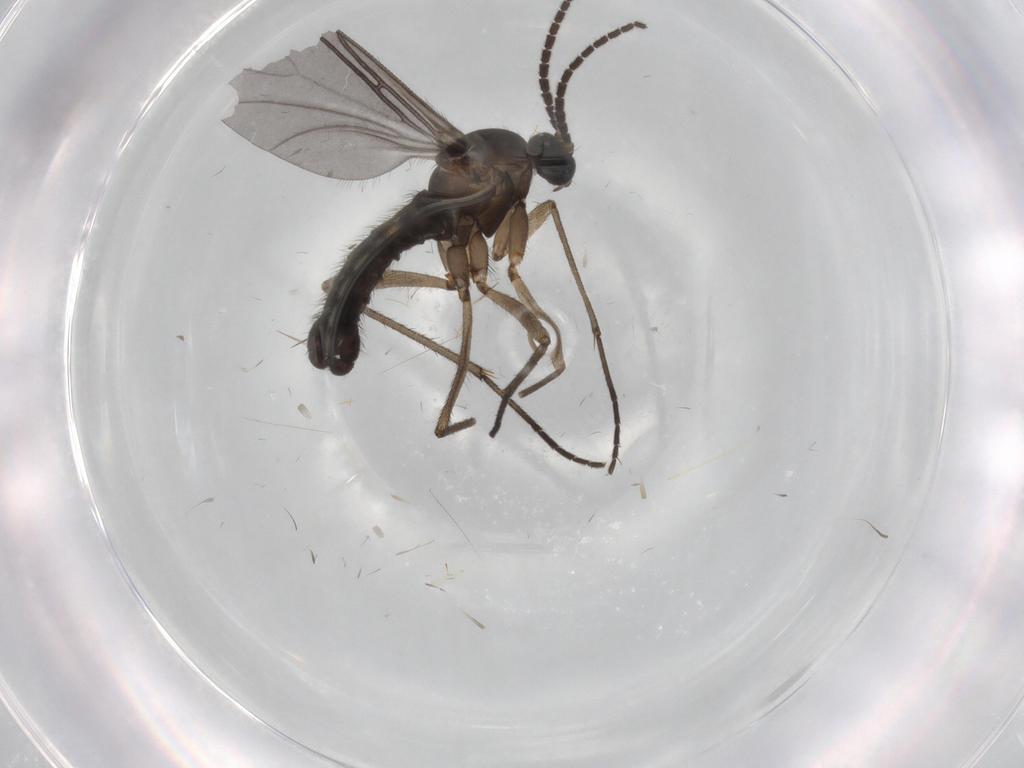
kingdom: Animalia
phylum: Arthropoda
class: Insecta
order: Diptera
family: Sciaridae
